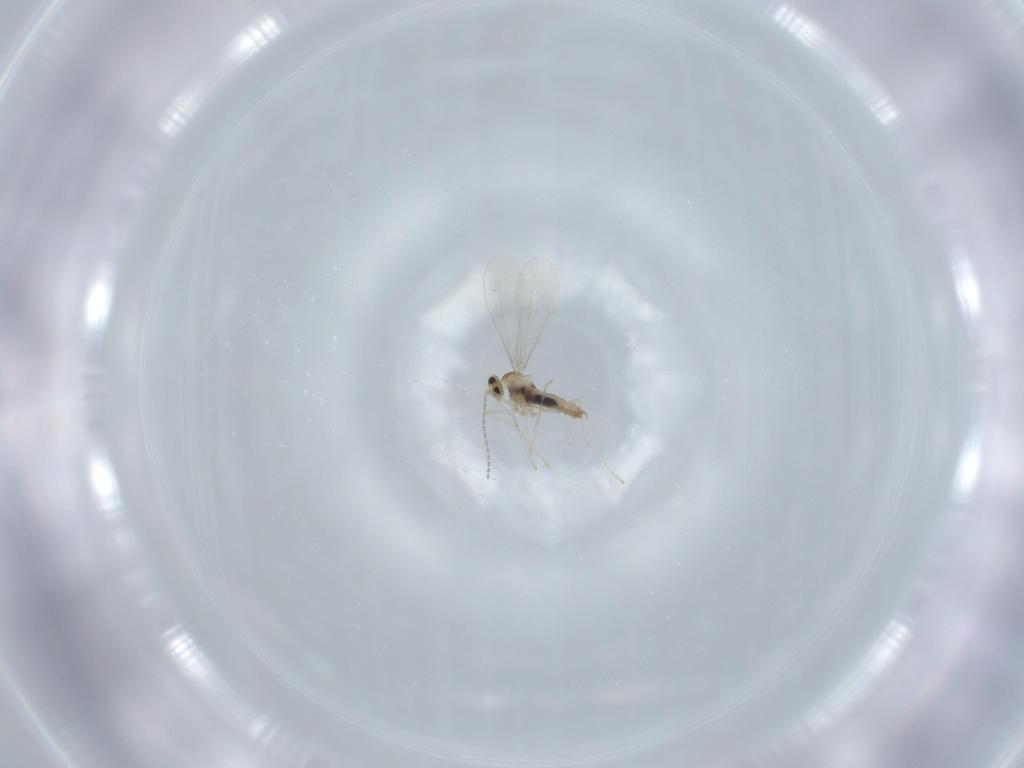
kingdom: Animalia
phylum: Arthropoda
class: Insecta
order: Diptera
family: Cecidomyiidae
